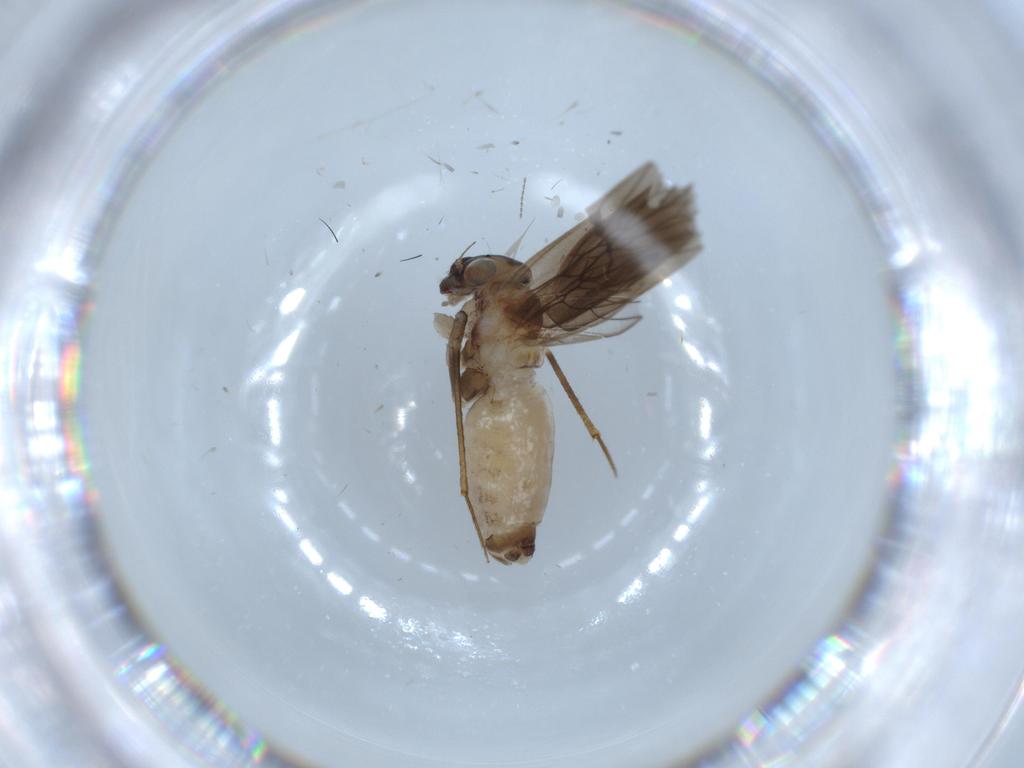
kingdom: Animalia
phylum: Arthropoda
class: Insecta
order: Psocodea
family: Lepidopsocidae
